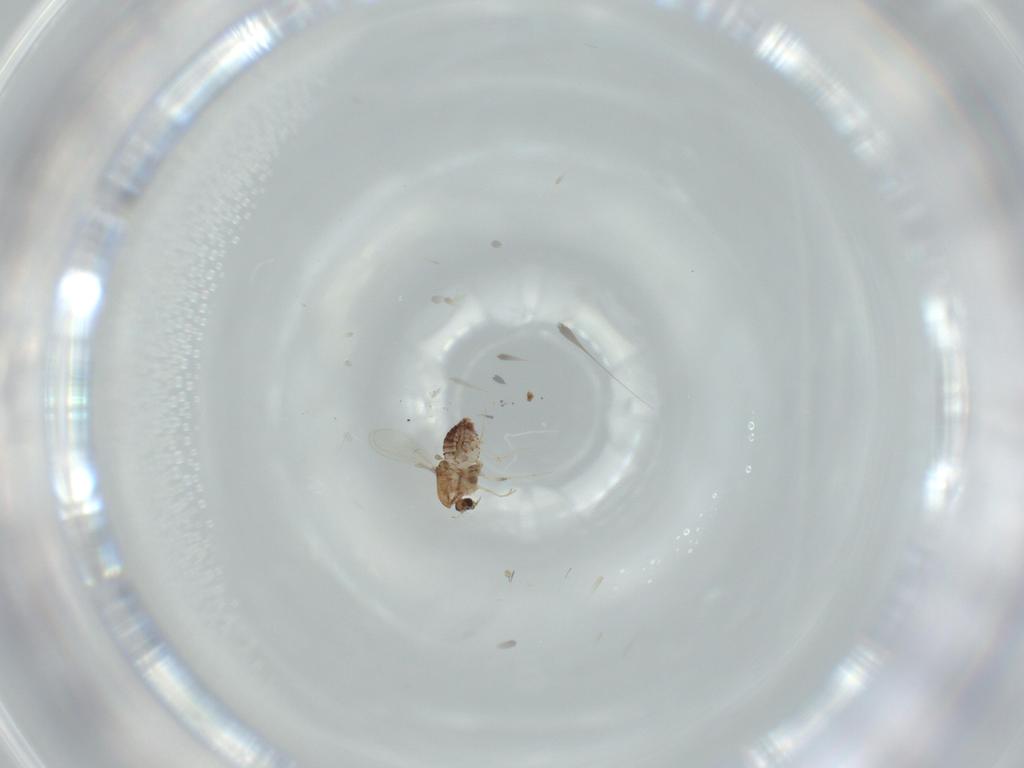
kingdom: Animalia
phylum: Arthropoda
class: Insecta
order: Diptera
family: Chironomidae
